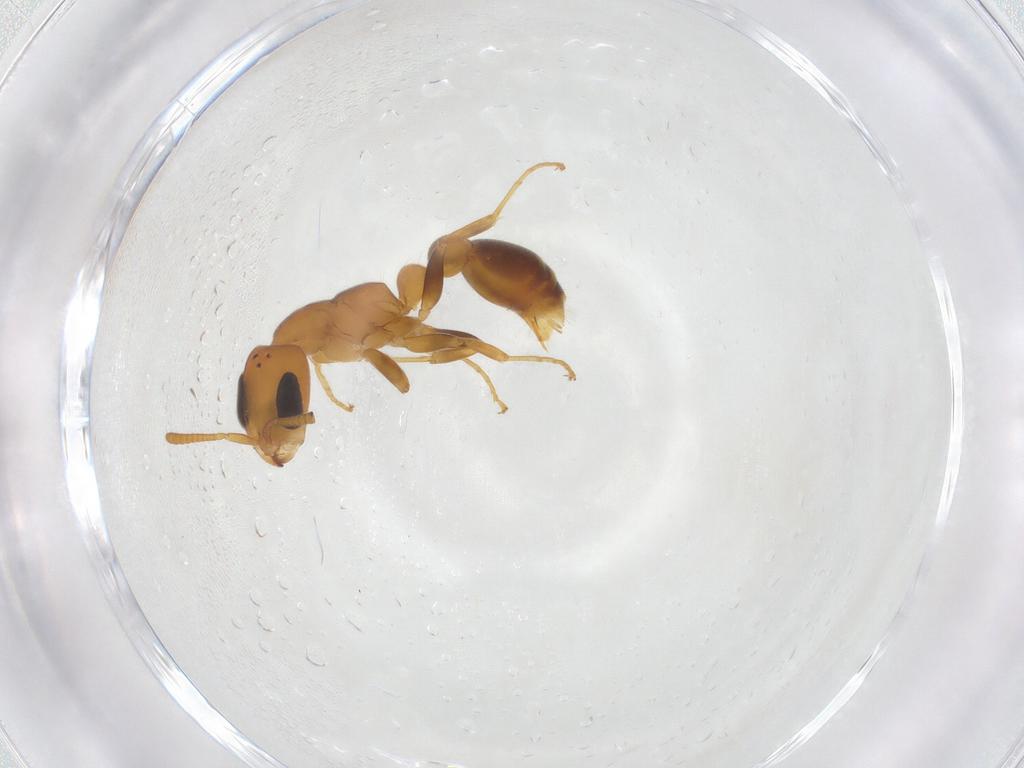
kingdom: Animalia
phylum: Arthropoda
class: Insecta
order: Hymenoptera
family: Formicidae
